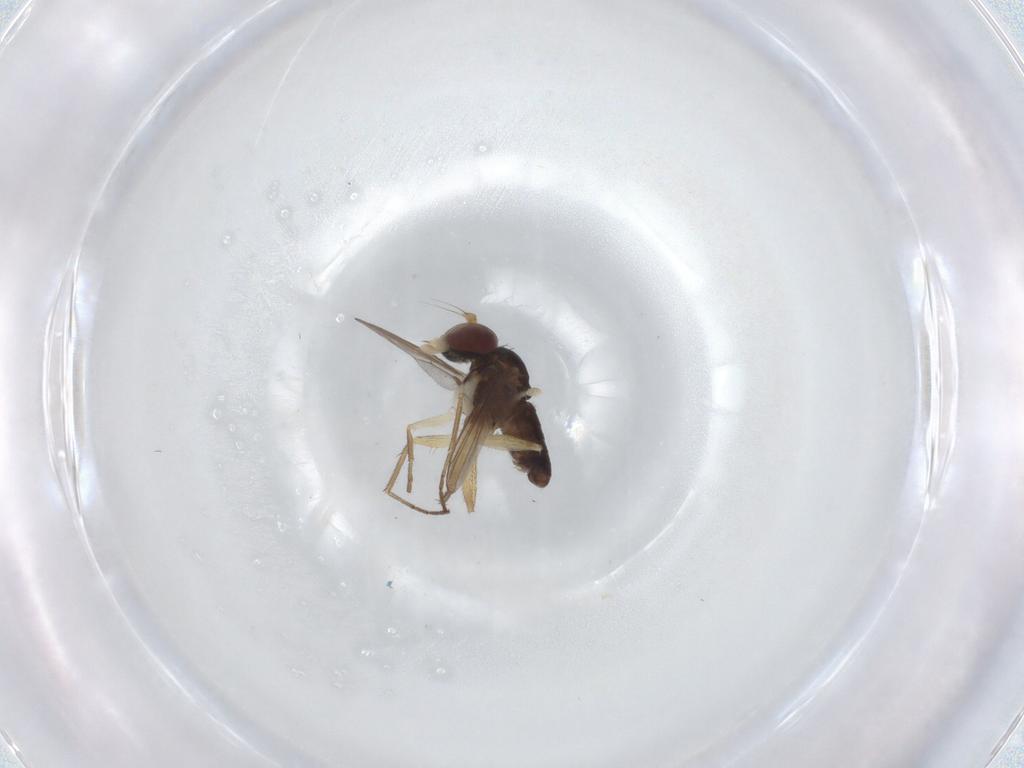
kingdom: Animalia
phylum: Arthropoda
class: Insecta
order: Diptera
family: Dolichopodidae
